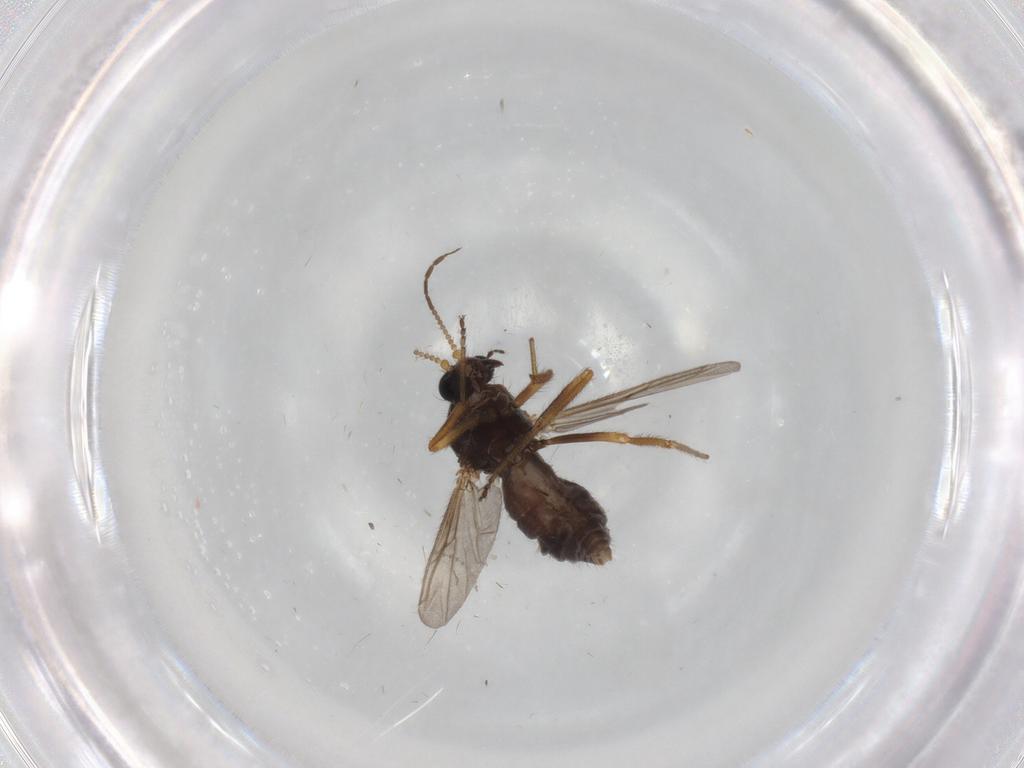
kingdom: Animalia
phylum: Arthropoda
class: Insecta
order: Diptera
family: Ceratopogonidae
